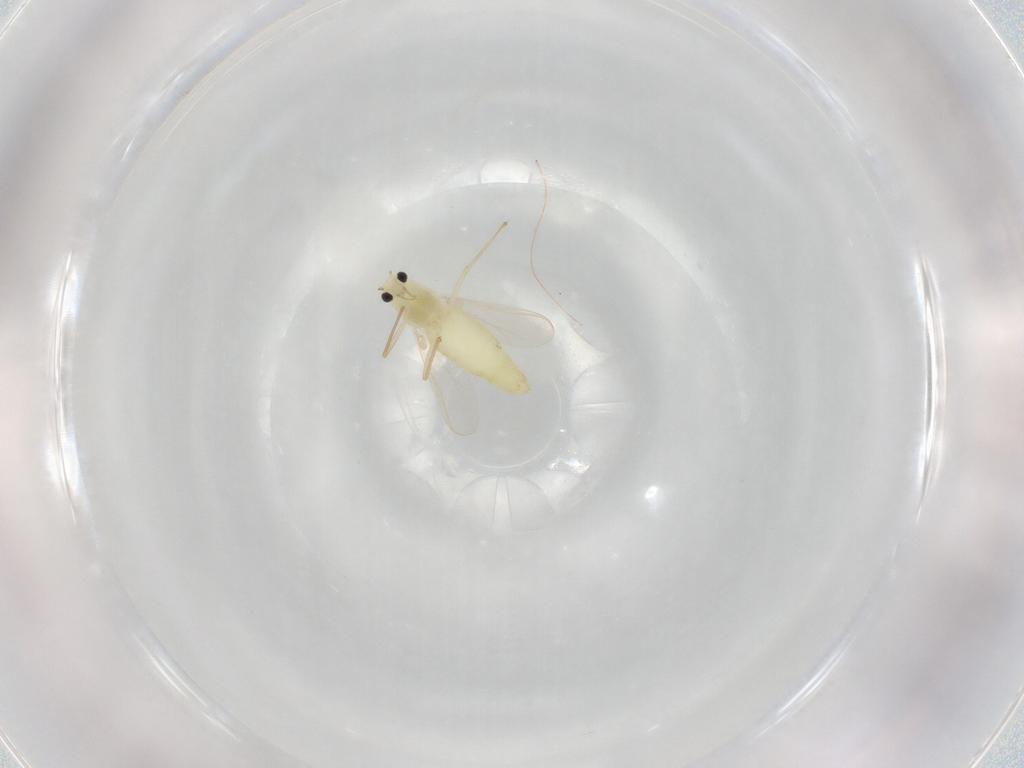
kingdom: Animalia
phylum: Arthropoda
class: Insecta
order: Diptera
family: Chironomidae
